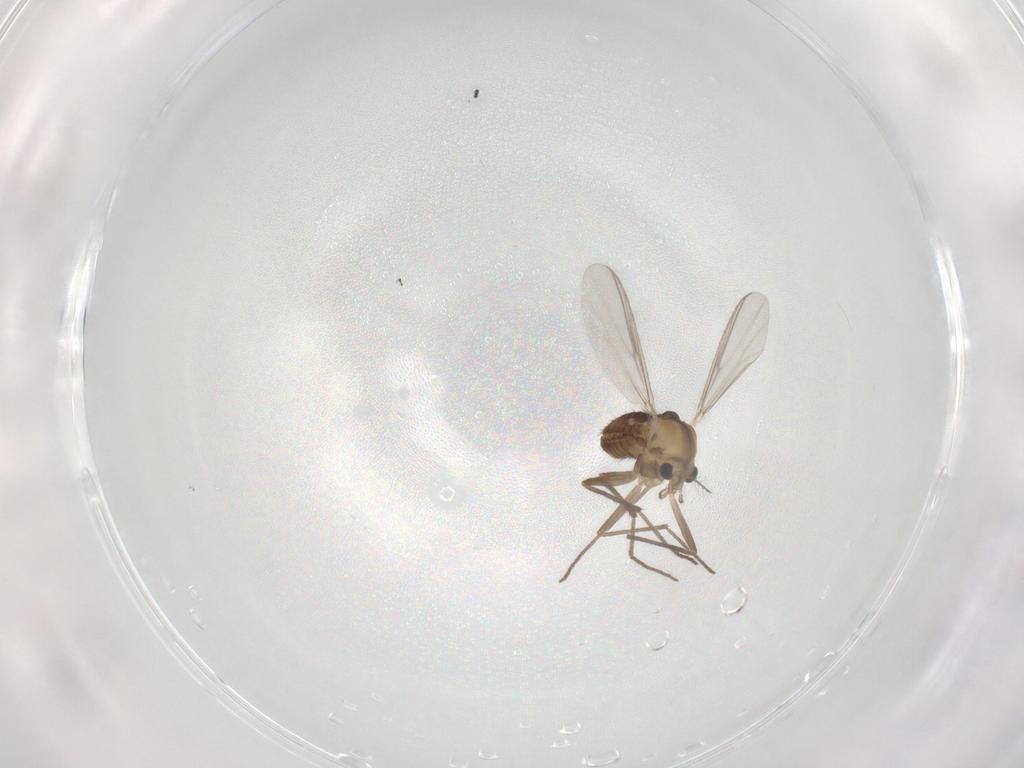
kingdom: Animalia
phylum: Arthropoda
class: Insecta
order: Diptera
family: Chironomidae
